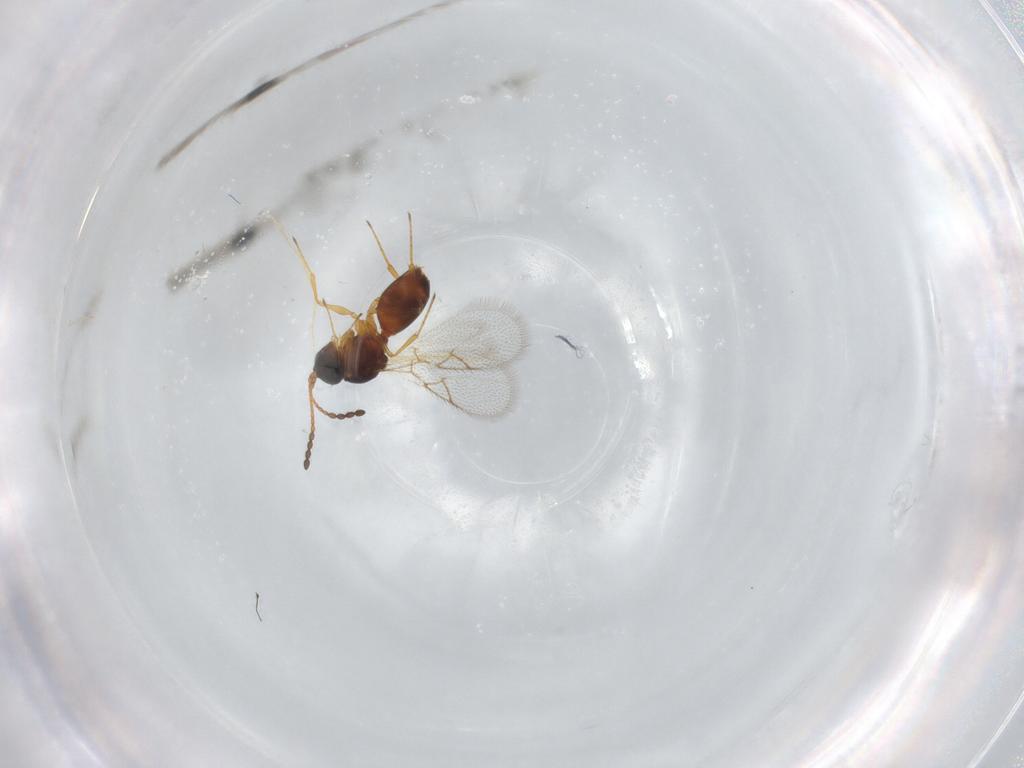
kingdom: Animalia
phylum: Arthropoda
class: Insecta
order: Hymenoptera
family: Figitidae
